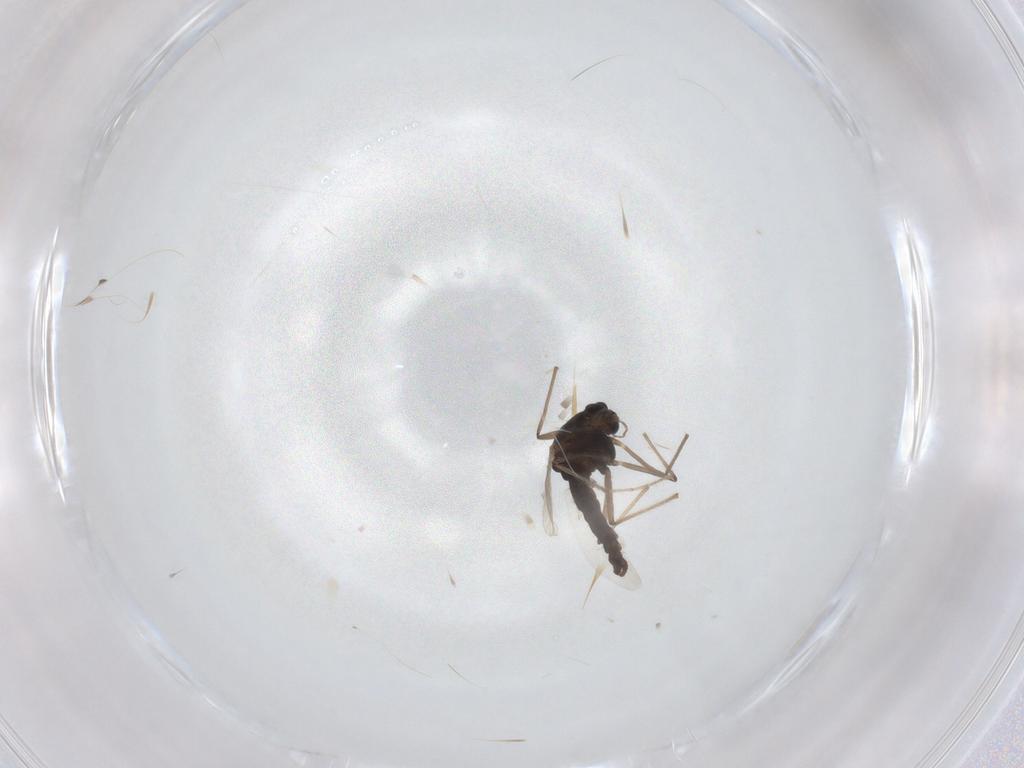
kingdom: Animalia
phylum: Arthropoda
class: Insecta
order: Diptera
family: Chironomidae
